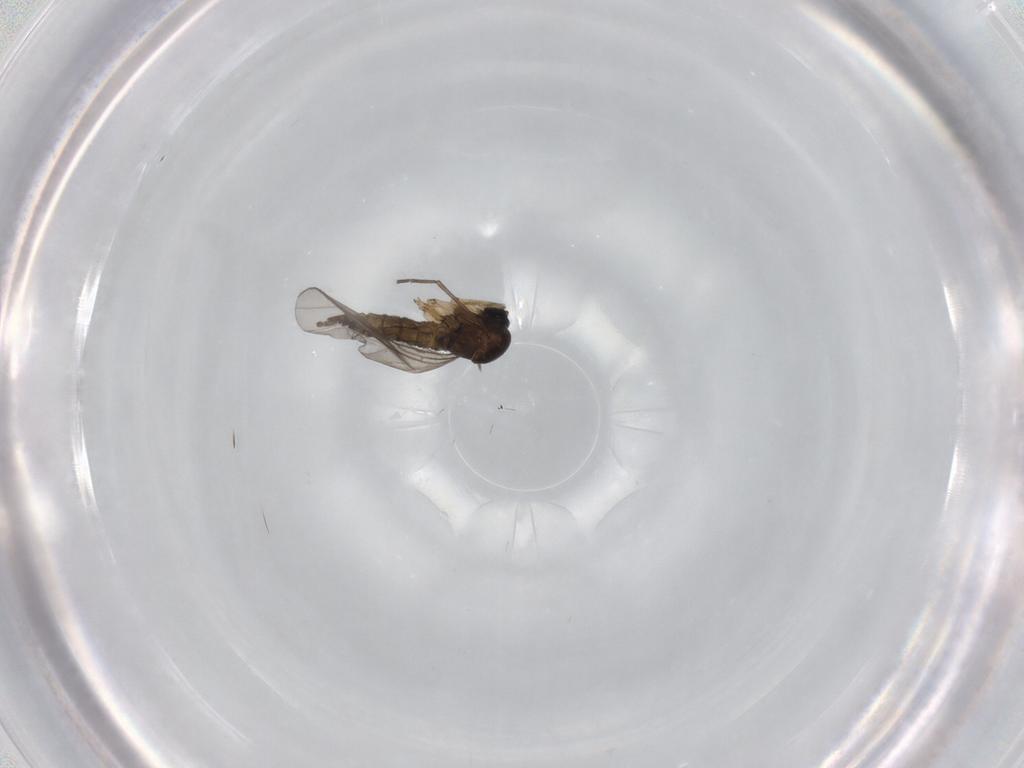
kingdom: Animalia
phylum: Arthropoda
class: Insecta
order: Diptera
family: Sciaridae
